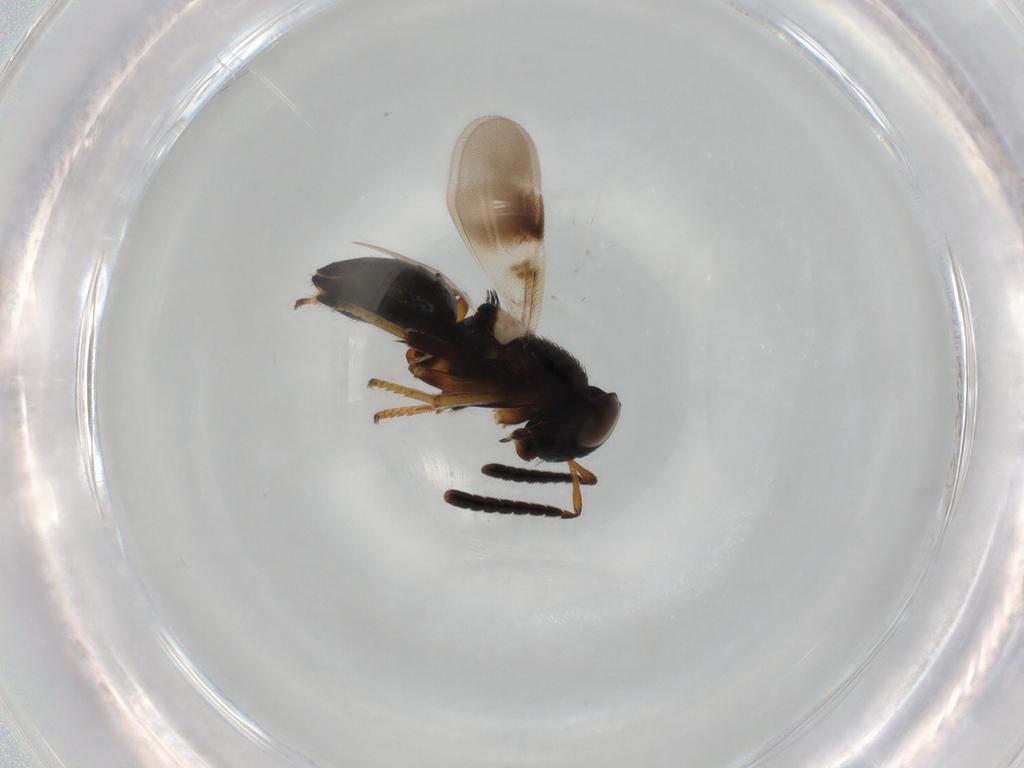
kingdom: Animalia
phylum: Arthropoda
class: Insecta
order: Hymenoptera
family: Encyrtidae
